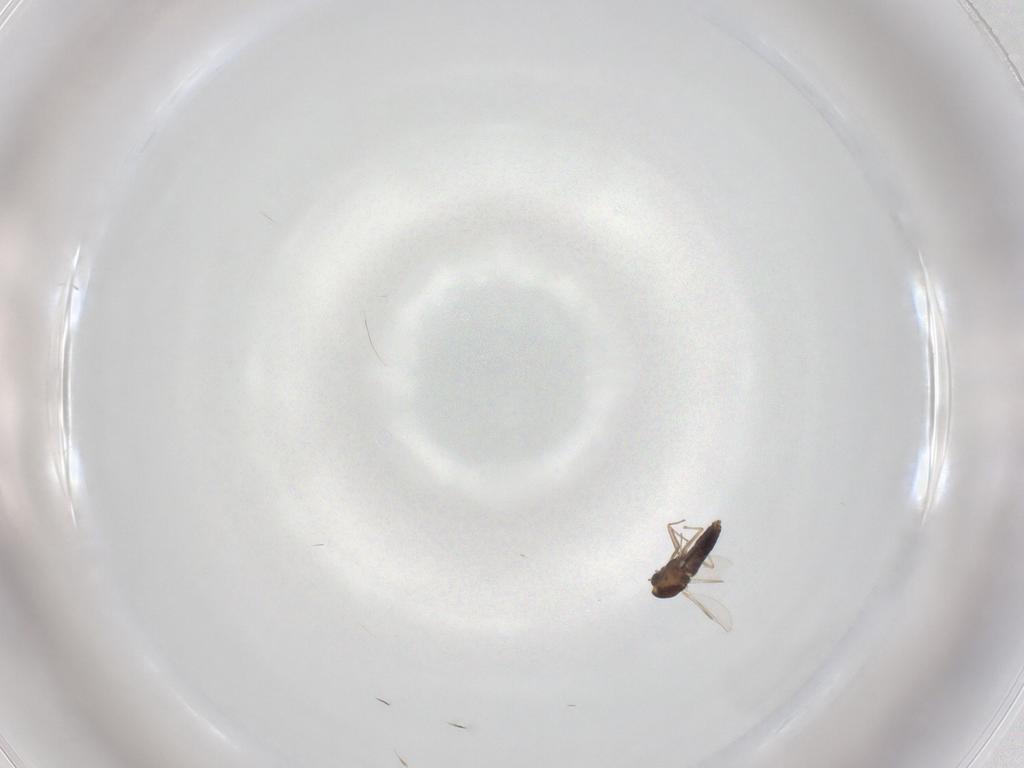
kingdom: Animalia
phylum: Arthropoda
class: Insecta
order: Diptera
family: Chironomidae
